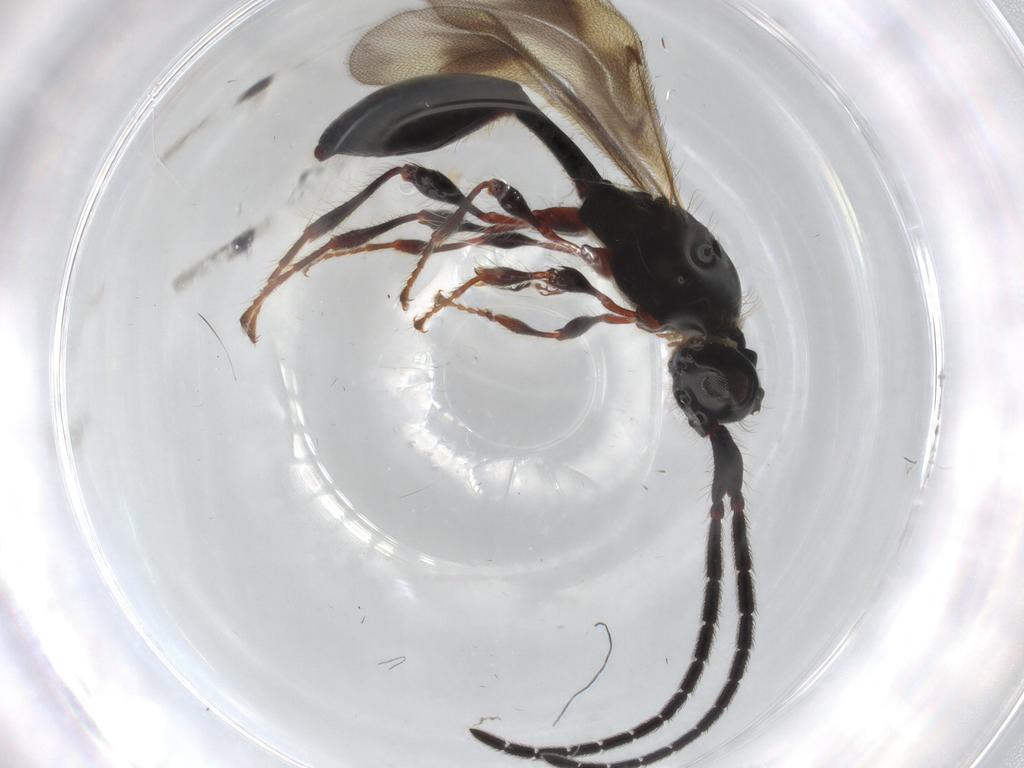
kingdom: Animalia
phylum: Arthropoda
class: Insecta
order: Hymenoptera
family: Diapriidae
